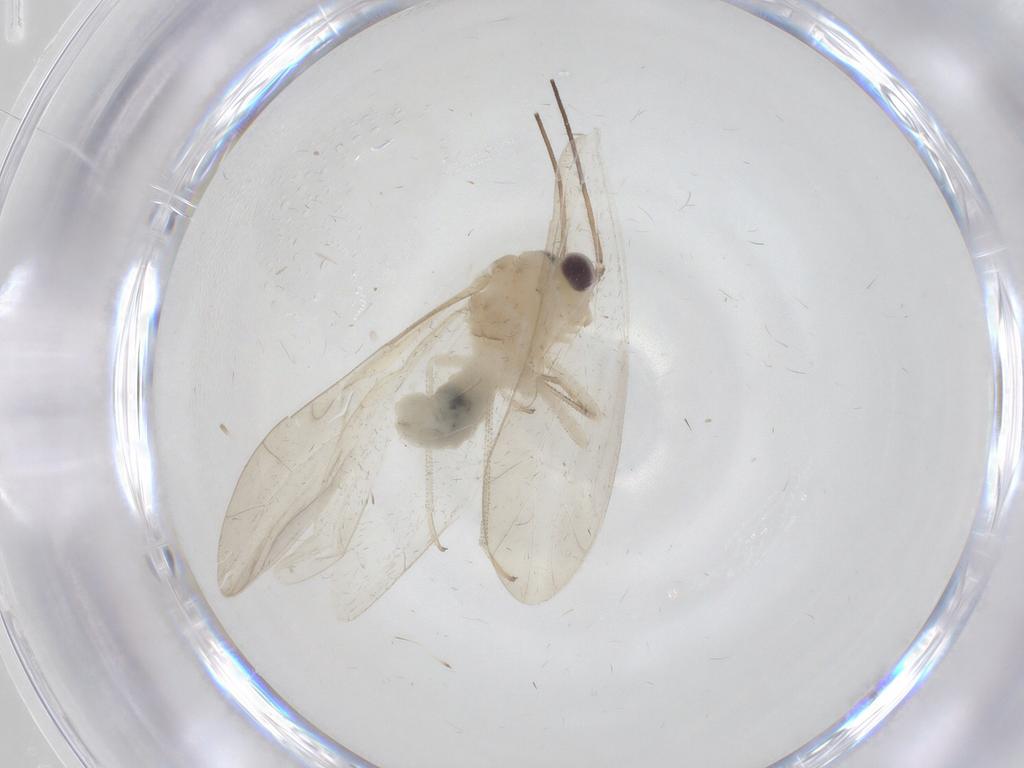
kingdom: Animalia
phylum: Arthropoda
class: Insecta
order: Psocodea
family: Caeciliusidae
